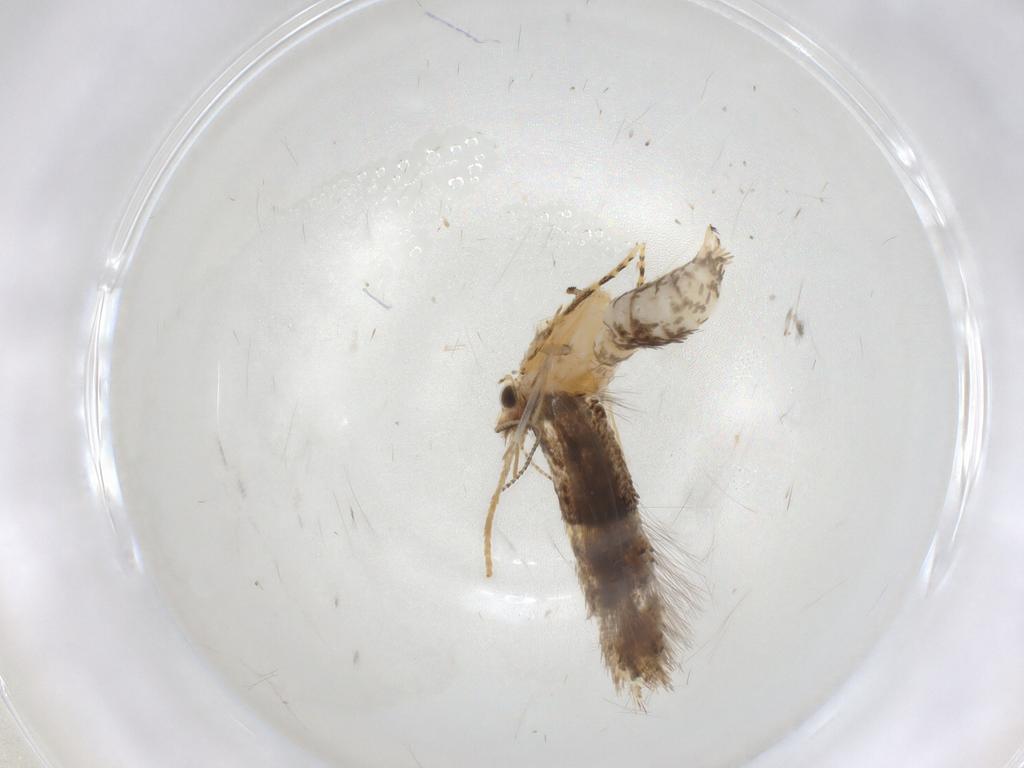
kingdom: Animalia
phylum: Arthropoda
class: Insecta
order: Lepidoptera
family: Tineidae
